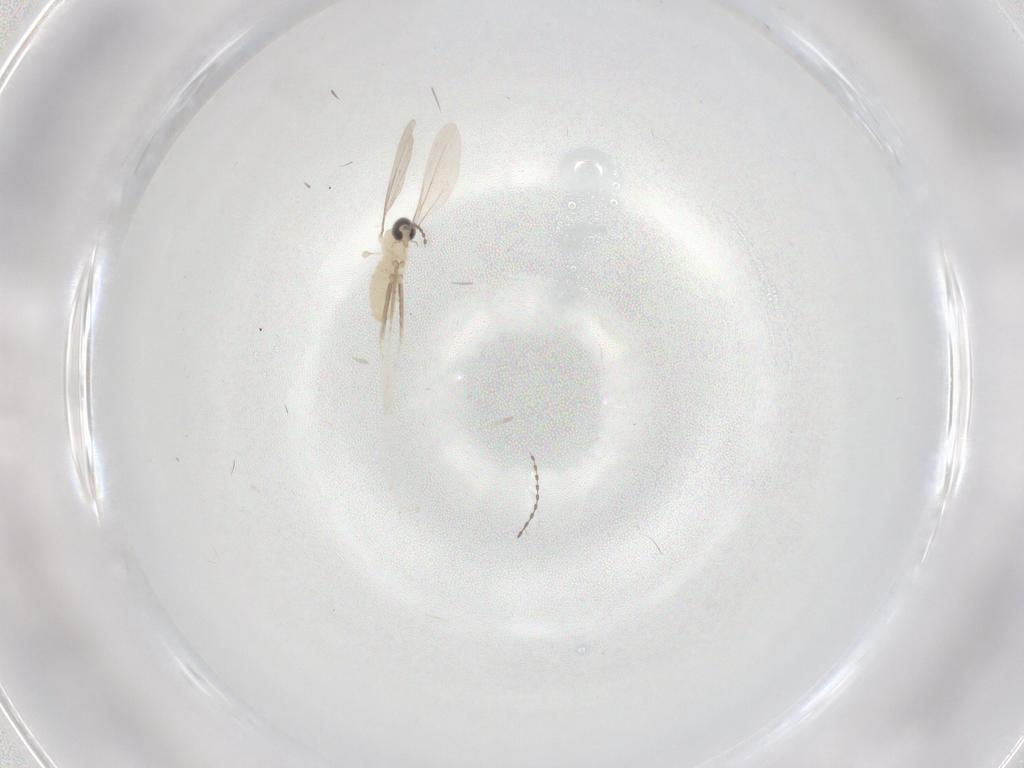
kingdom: Animalia
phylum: Arthropoda
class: Insecta
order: Diptera
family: Cecidomyiidae
